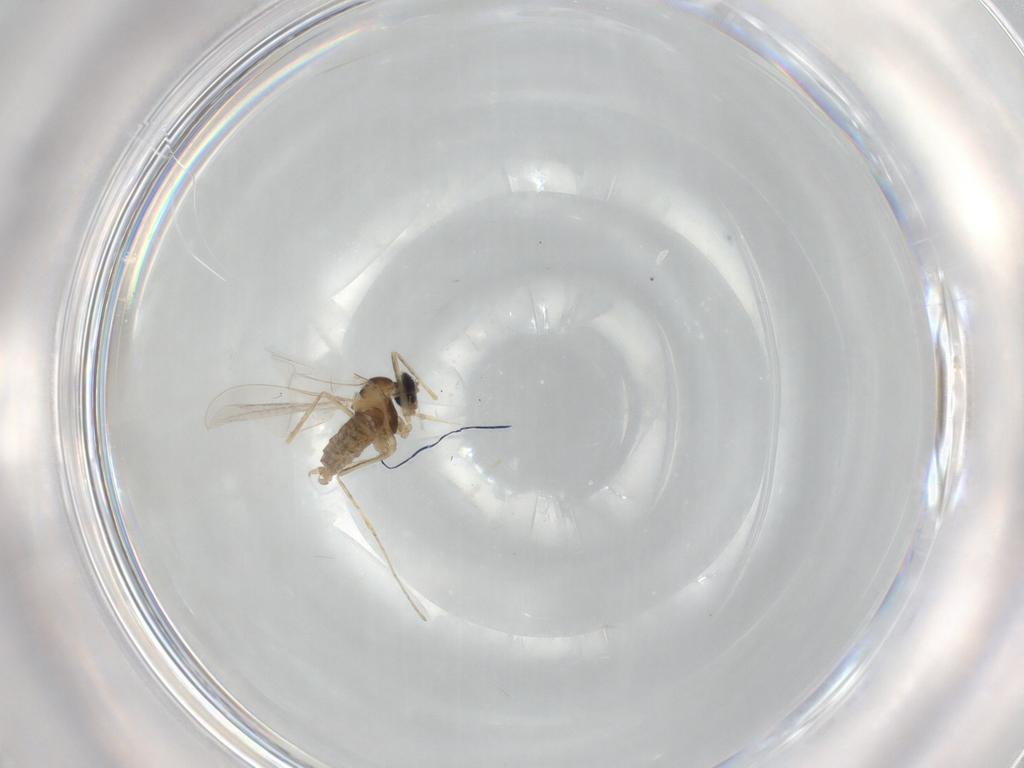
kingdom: Animalia
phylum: Arthropoda
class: Insecta
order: Diptera
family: Cecidomyiidae
